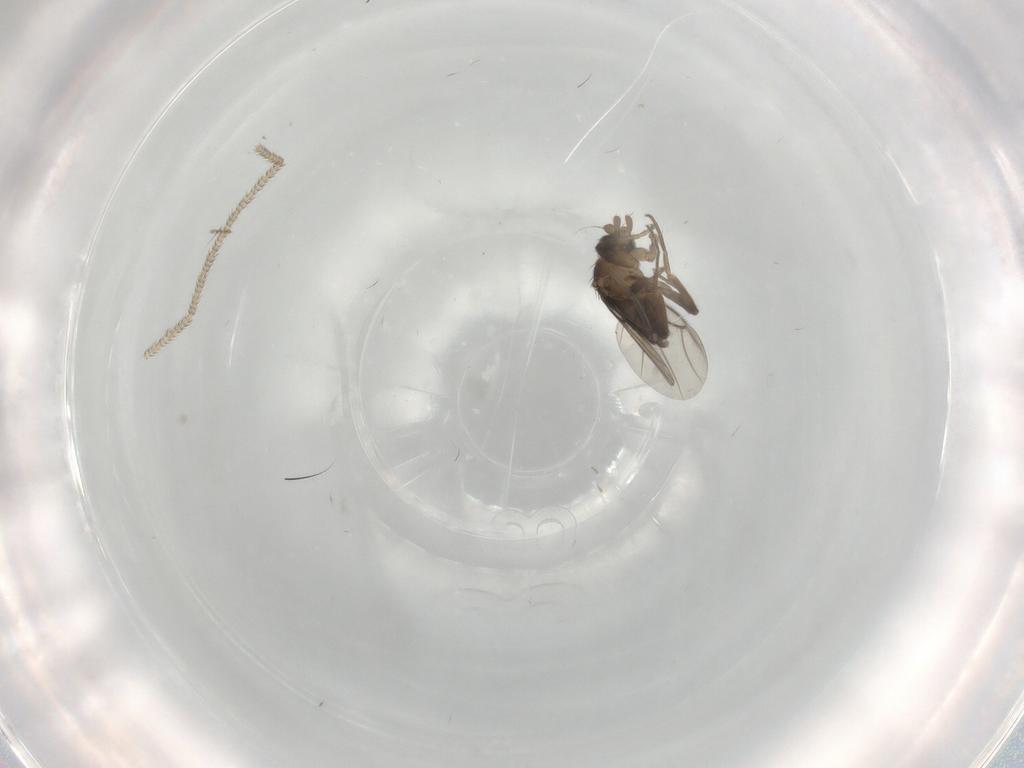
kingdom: Animalia
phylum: Arthropoda
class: Insecta
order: Diptera
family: Phoridae
